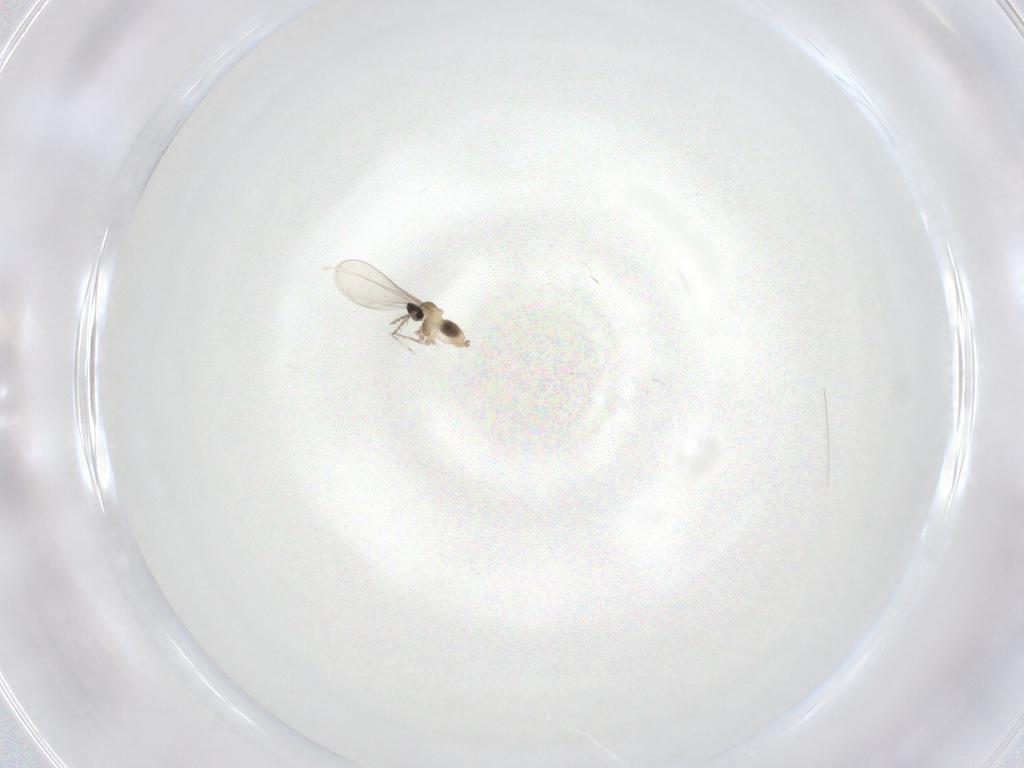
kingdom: Animalia
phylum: Arthropoda
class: Insecta
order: Diptera
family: Cecidomyiidae
